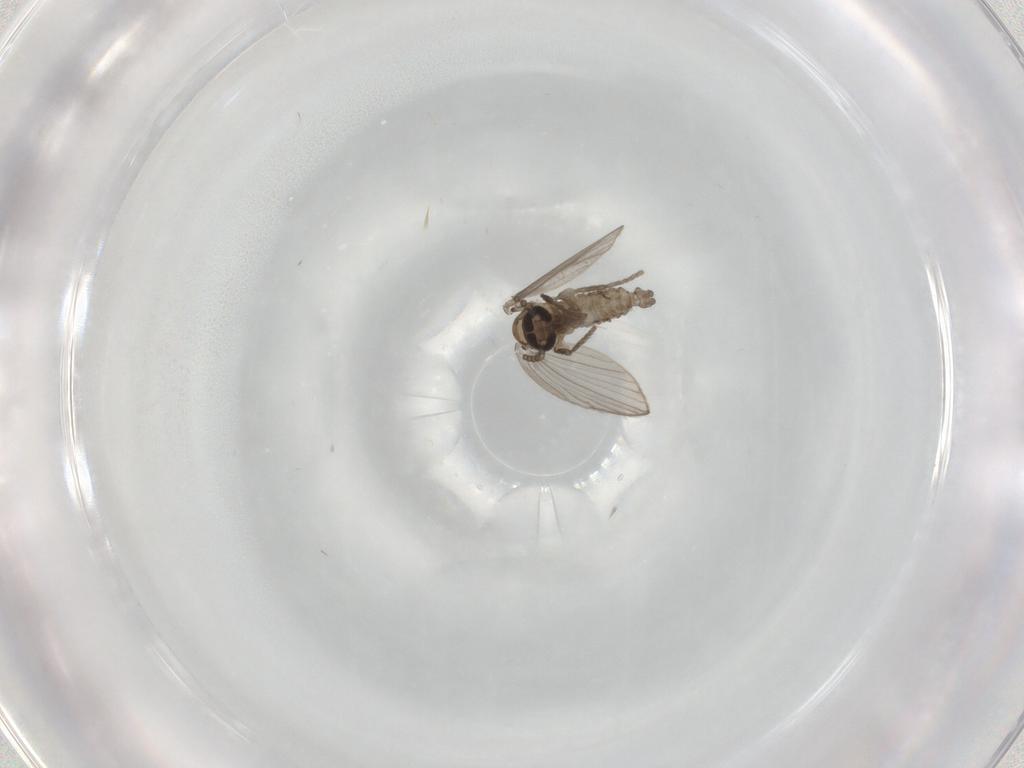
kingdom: Animalia
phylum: Arthropoda
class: Insecta
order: Diptera
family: Psychodidae
